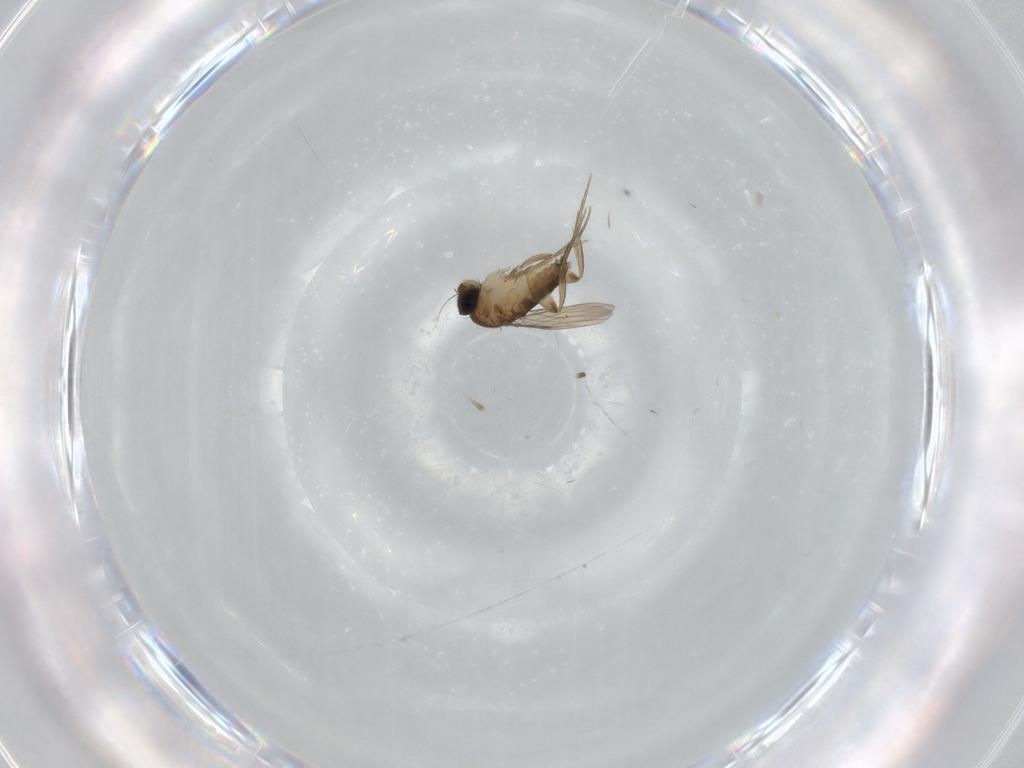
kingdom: Animalia
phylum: Arthropoda
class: Insecta
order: Diptera
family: Phoridae
